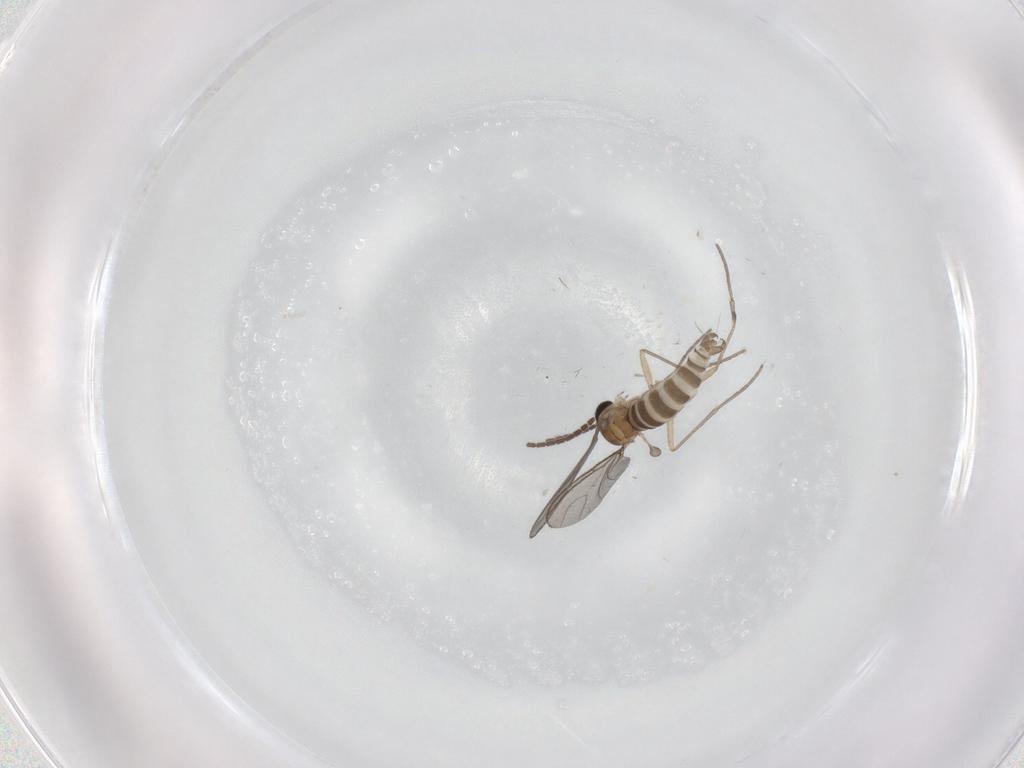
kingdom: Animalia
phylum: Arthropoda
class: Insecta
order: Diptera
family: Sciaridae
